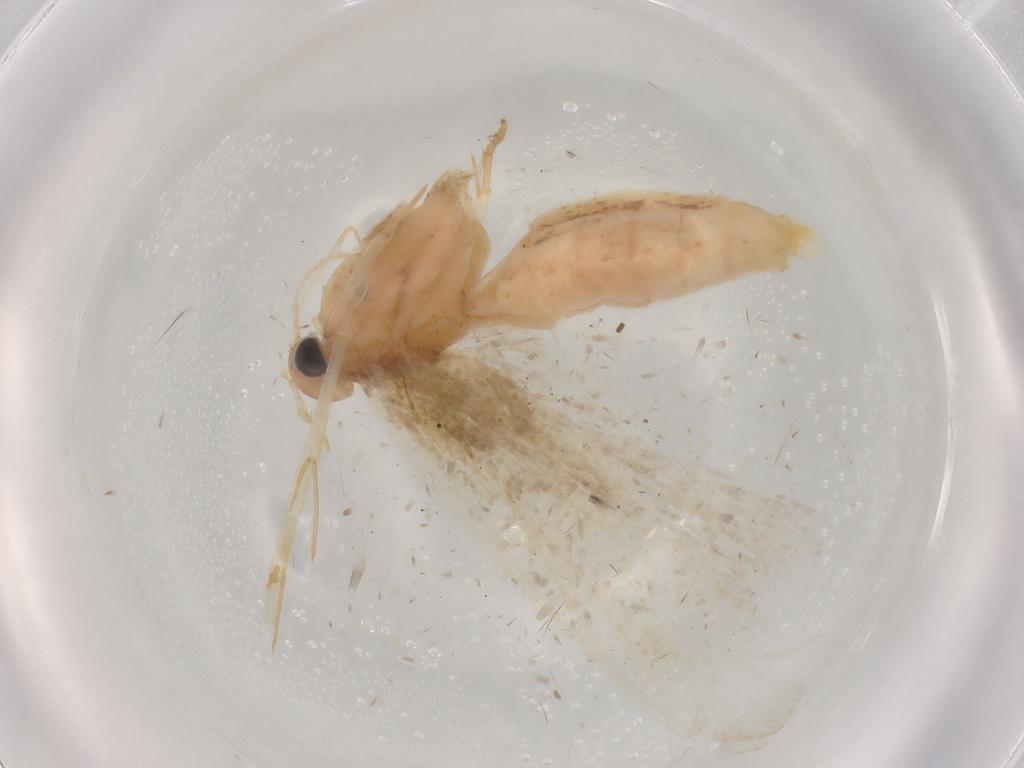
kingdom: Animalia
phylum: Arthropoda
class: Insecta
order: Lepidoptera
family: Gelechiidae
